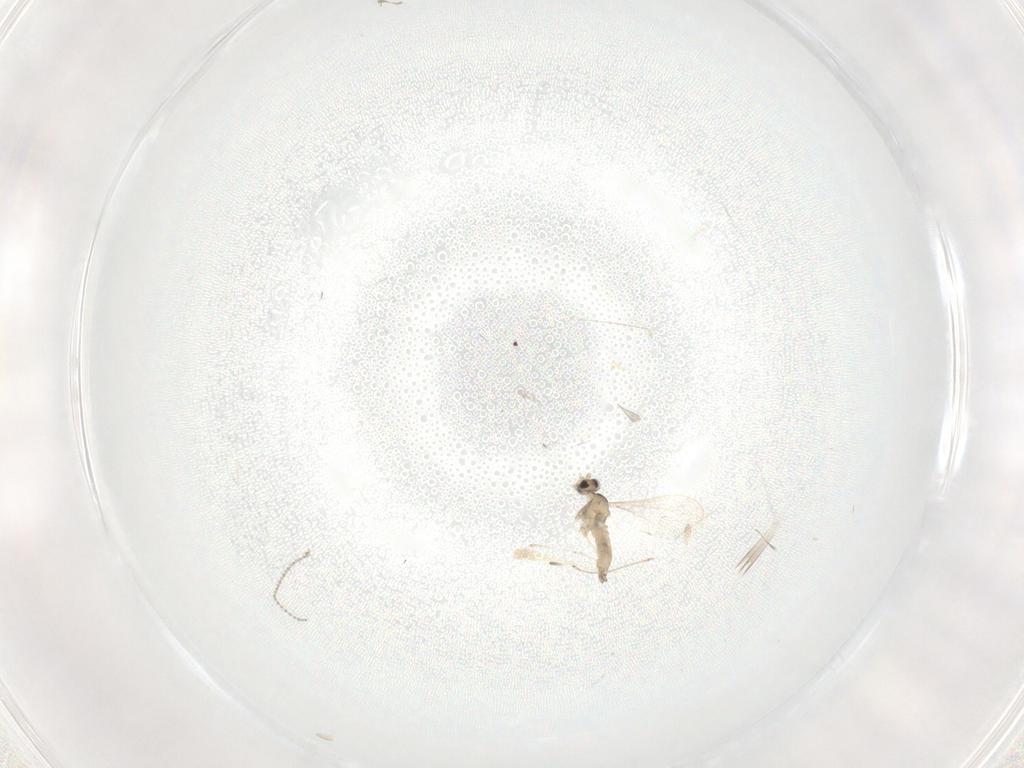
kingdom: Animalia
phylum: Arthropoda
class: Insecta
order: Diptera
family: Cecidomyiidae
